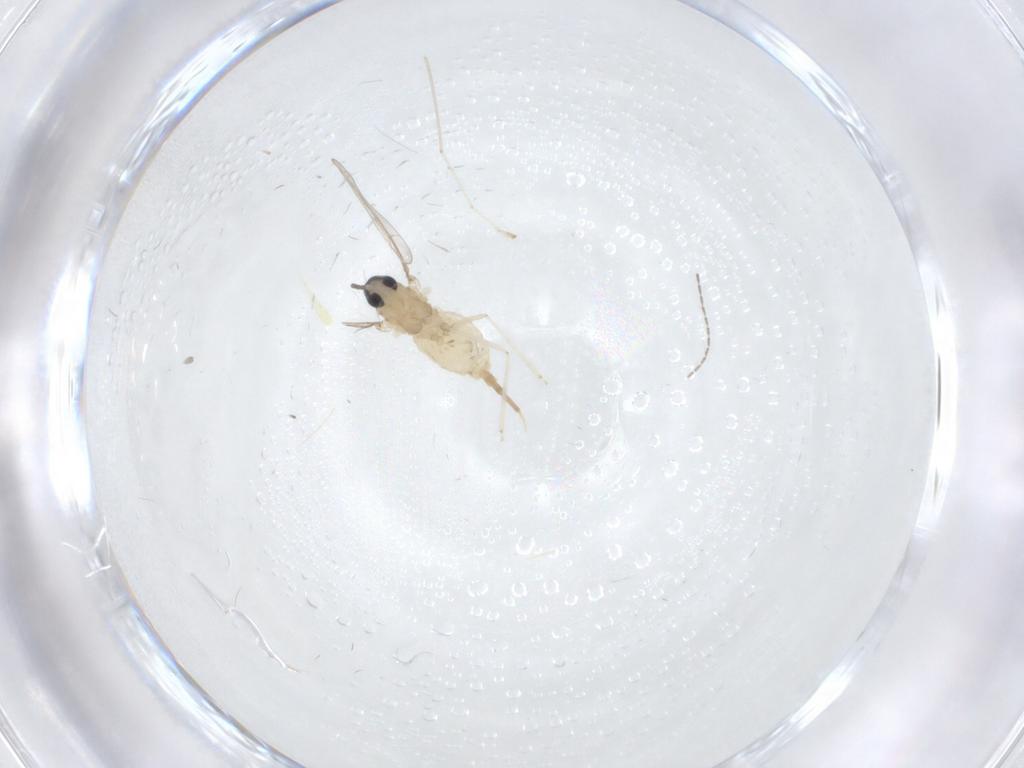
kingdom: Animalia
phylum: Arthropoda
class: Insecta
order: Diptera
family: Cecidomyiidae
